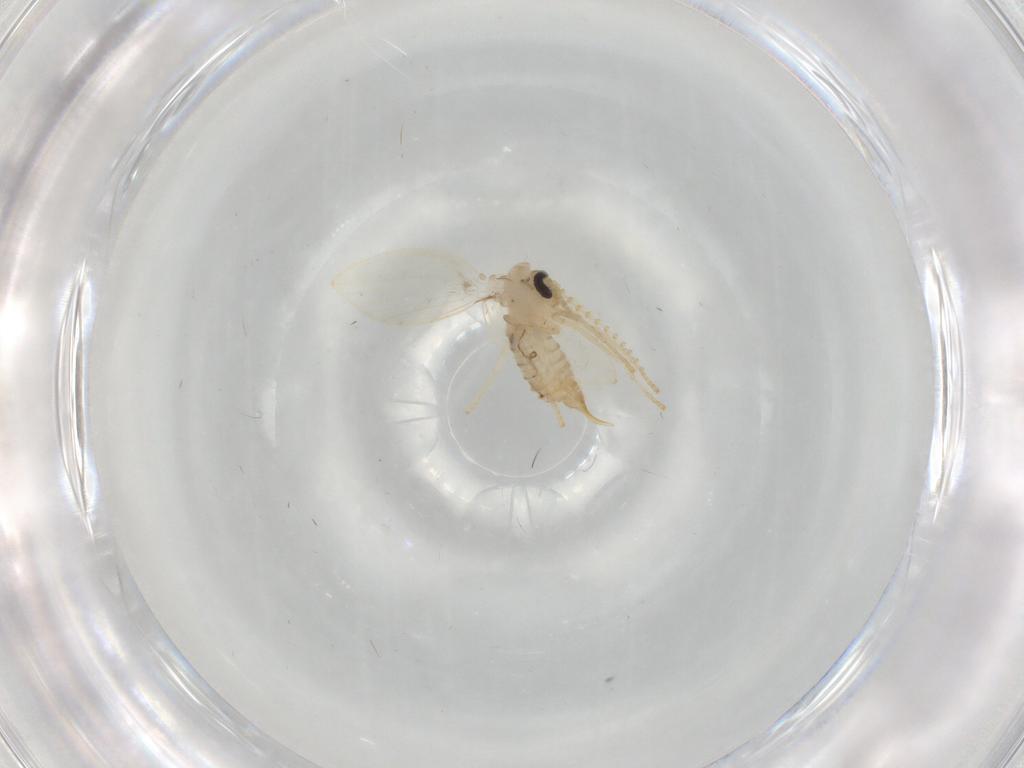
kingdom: Animalia
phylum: Arthropoda
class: Insecta
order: Diptera
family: Psychodidae
